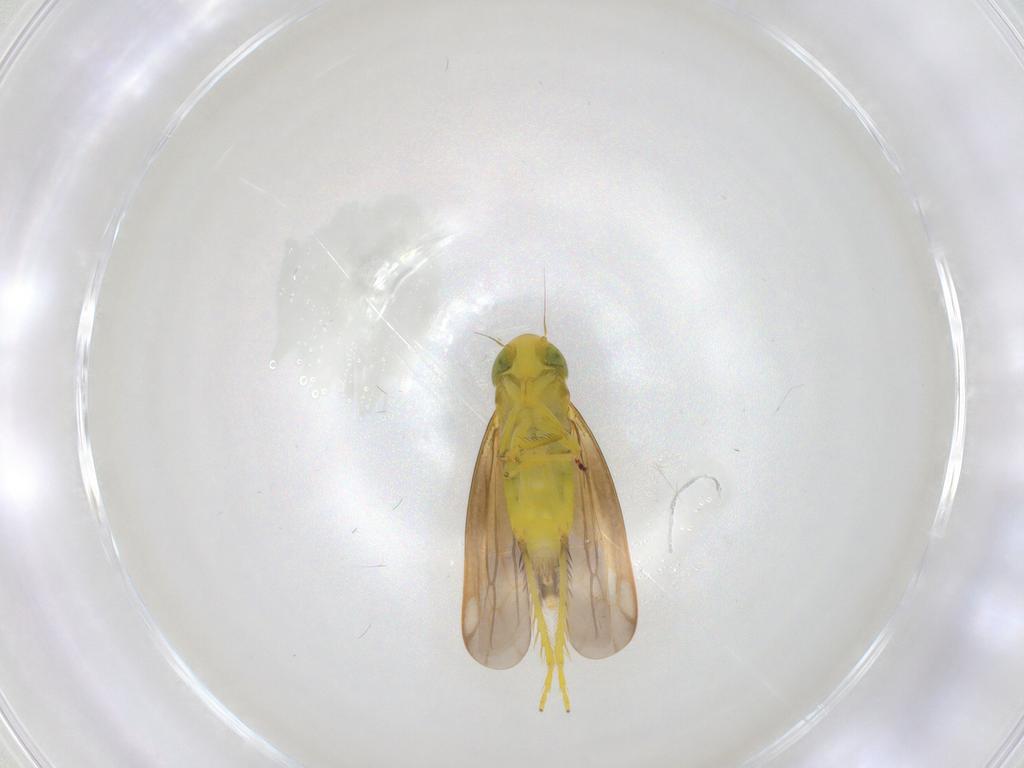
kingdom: Animalia
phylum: Arthropoda
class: Insecta
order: Hemiptera
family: Cicadellidae
